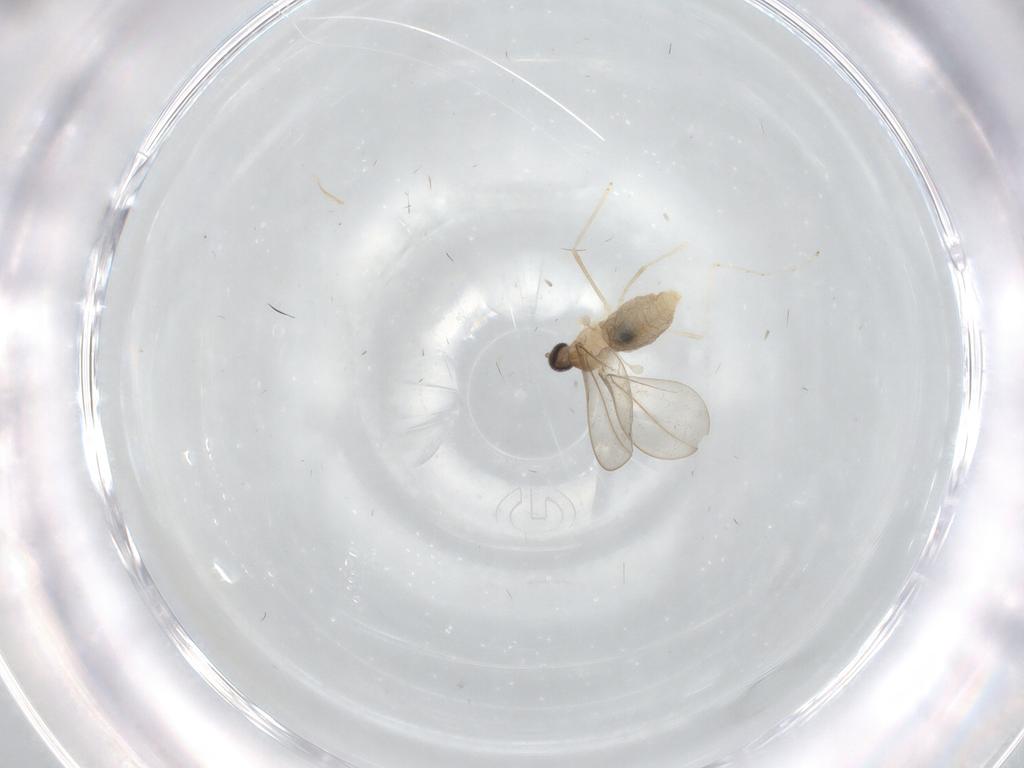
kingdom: Animalia
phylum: Arthropoda
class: Insecta
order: Diptera
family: Cecidomyiidae
